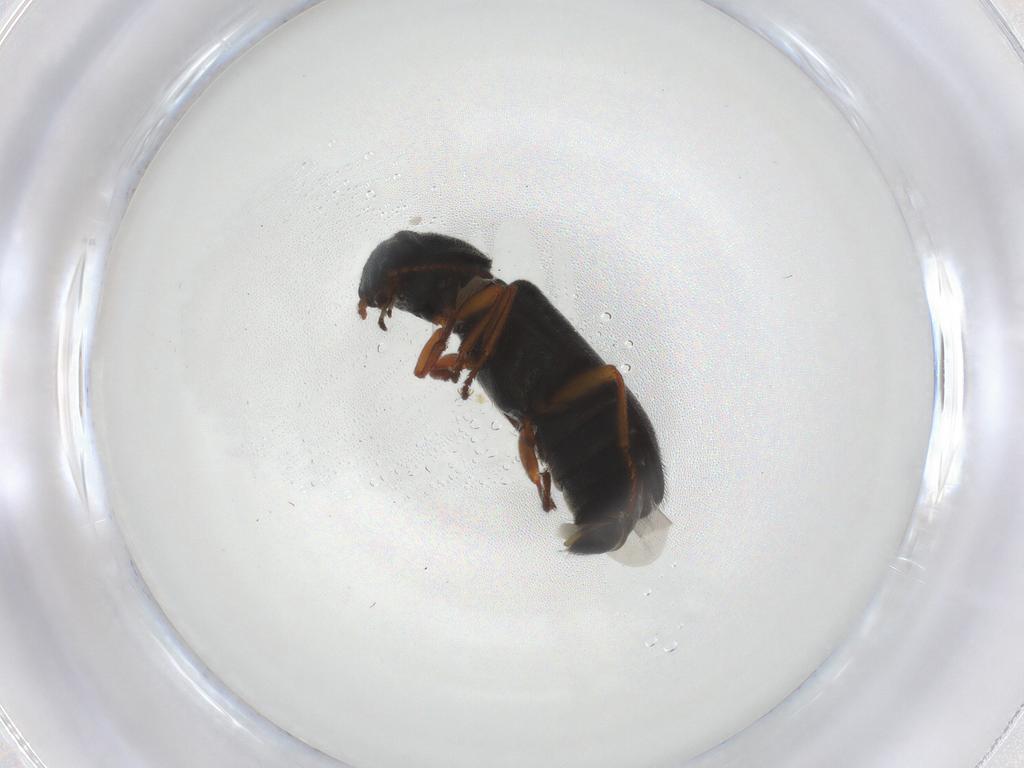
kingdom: Animalia
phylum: Arthropoda
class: Insecta
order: Coleoptera
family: Melyridae
